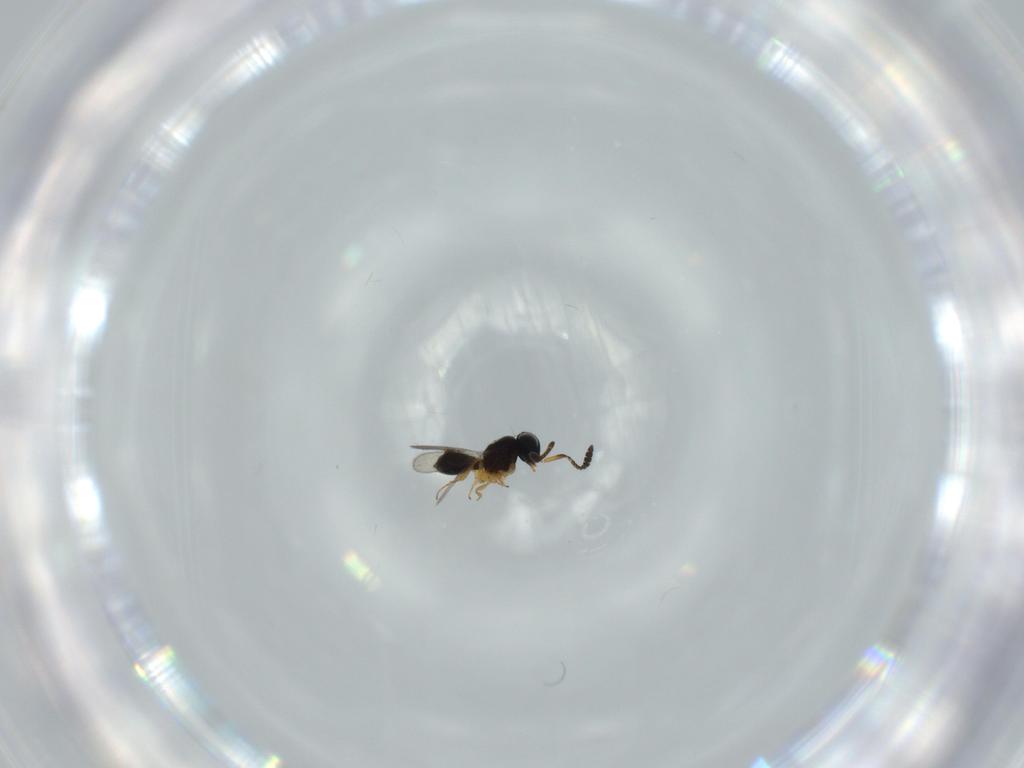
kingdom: Animalia
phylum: Arthropoda
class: Insecta
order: Hymenoptera
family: Scelionidae
